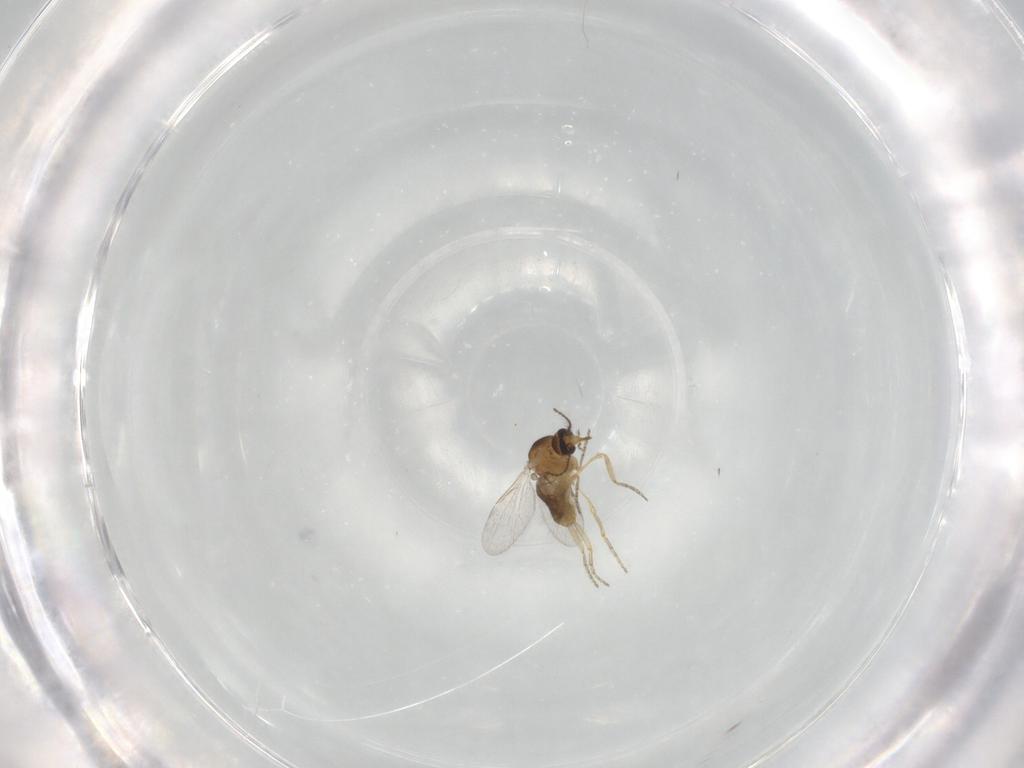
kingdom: Animalia
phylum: Arthropoda
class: Insecta
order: Diptera
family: Ceratopogonidae
